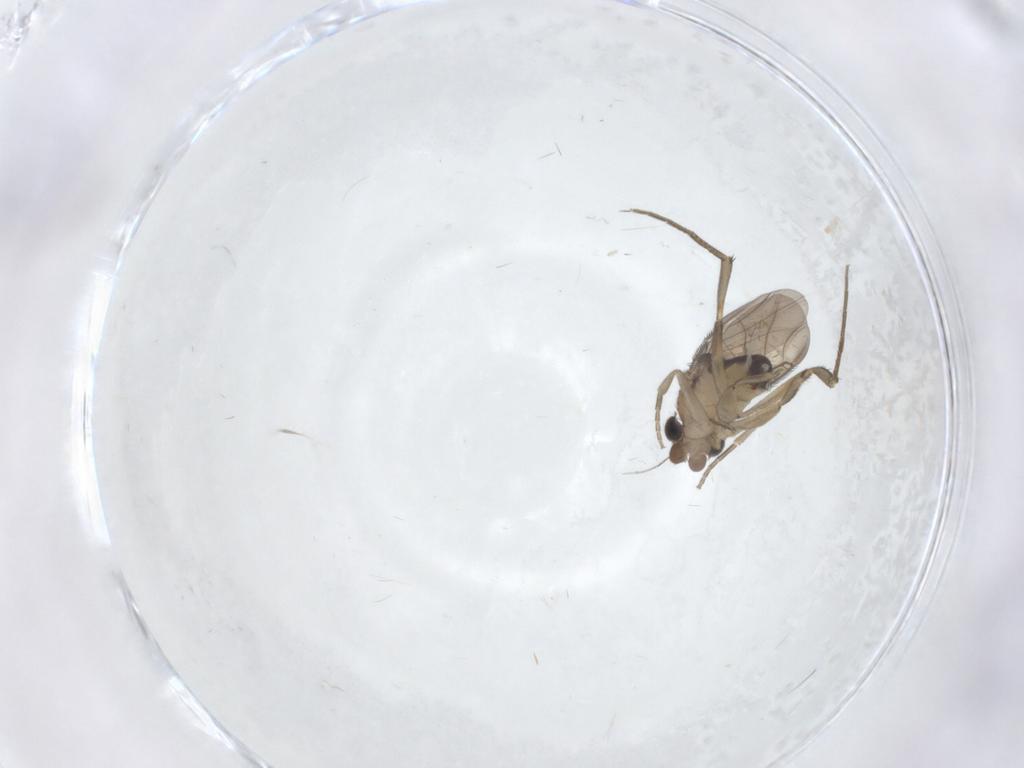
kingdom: Animalia
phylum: Arthropoda
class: Insecta
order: Diptera
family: Phoridae
